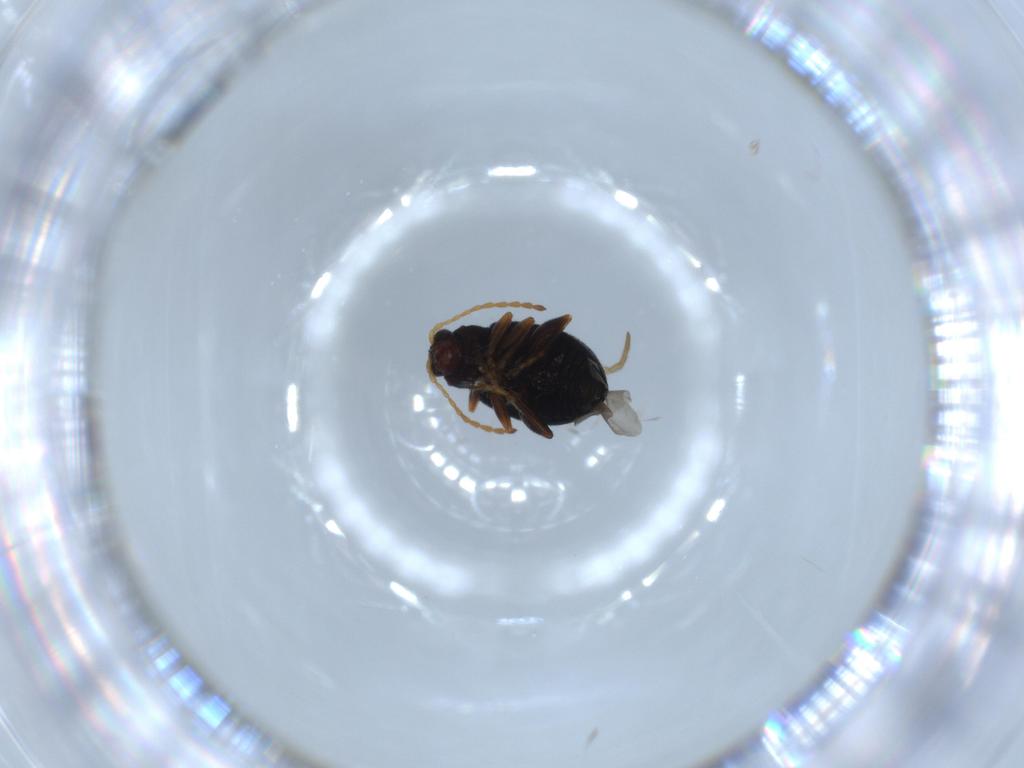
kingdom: Animalia
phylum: Arthropoda
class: Insecta
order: Coleoptera
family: Chrysomelidae
